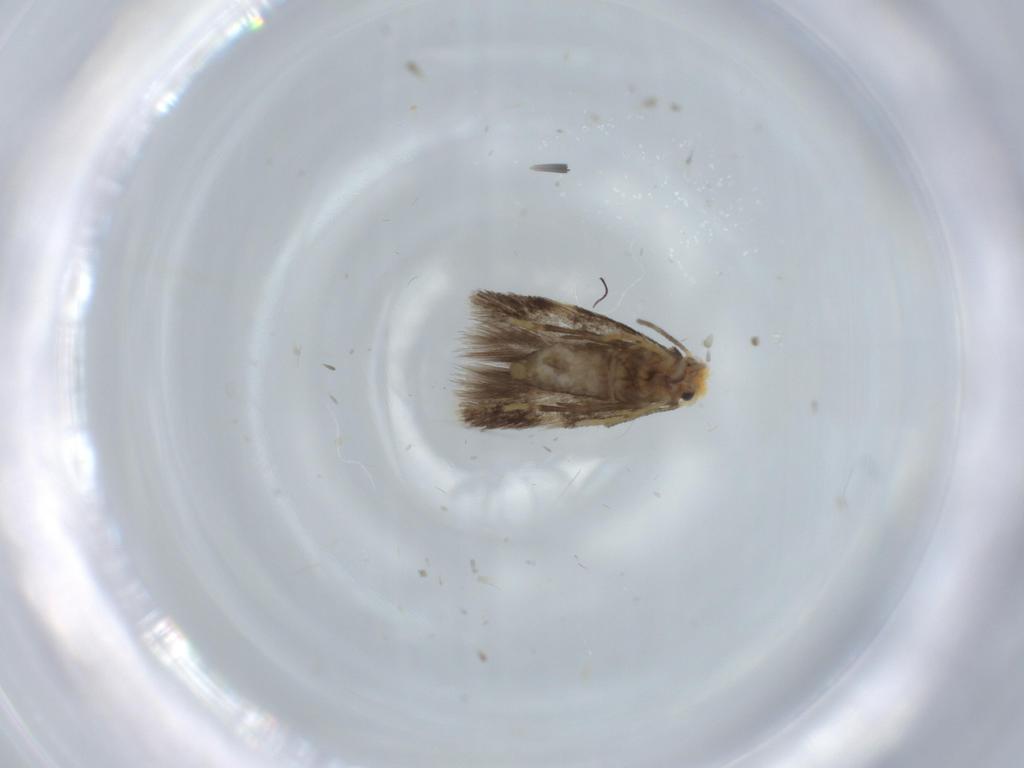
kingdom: Animalia
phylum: Arthropoda
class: Insecta
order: Lepidoptera
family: Nepticulidae
